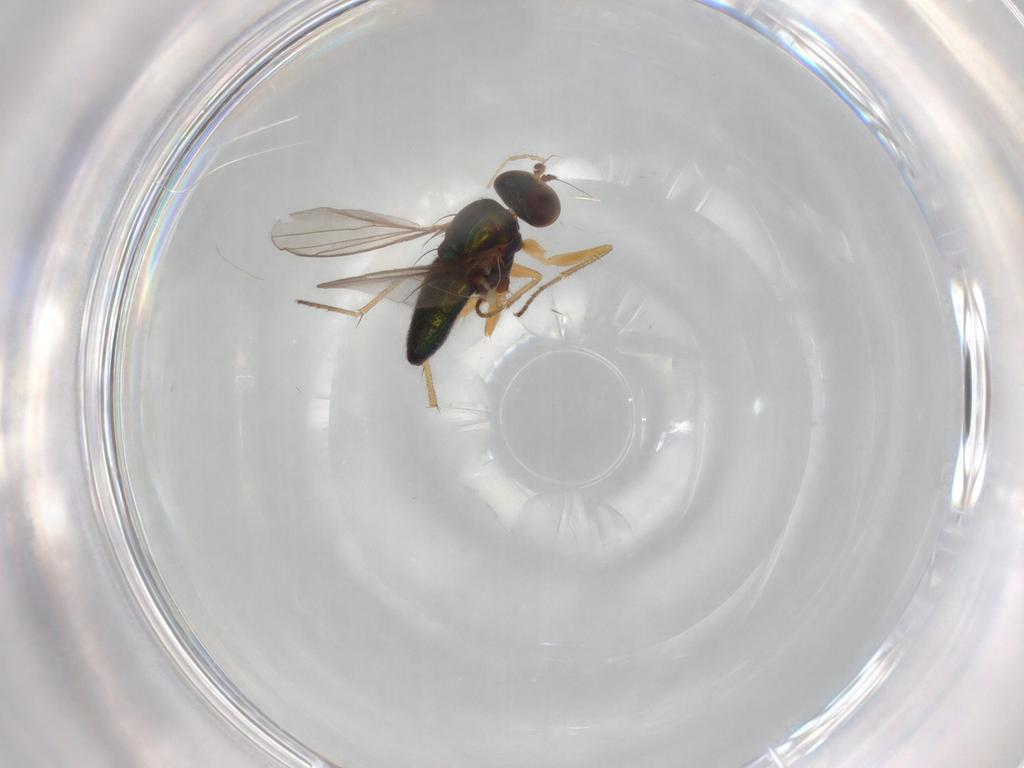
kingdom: Animalia
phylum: Arthropoda
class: Insecta
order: Diptera
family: Dolichopodidae
